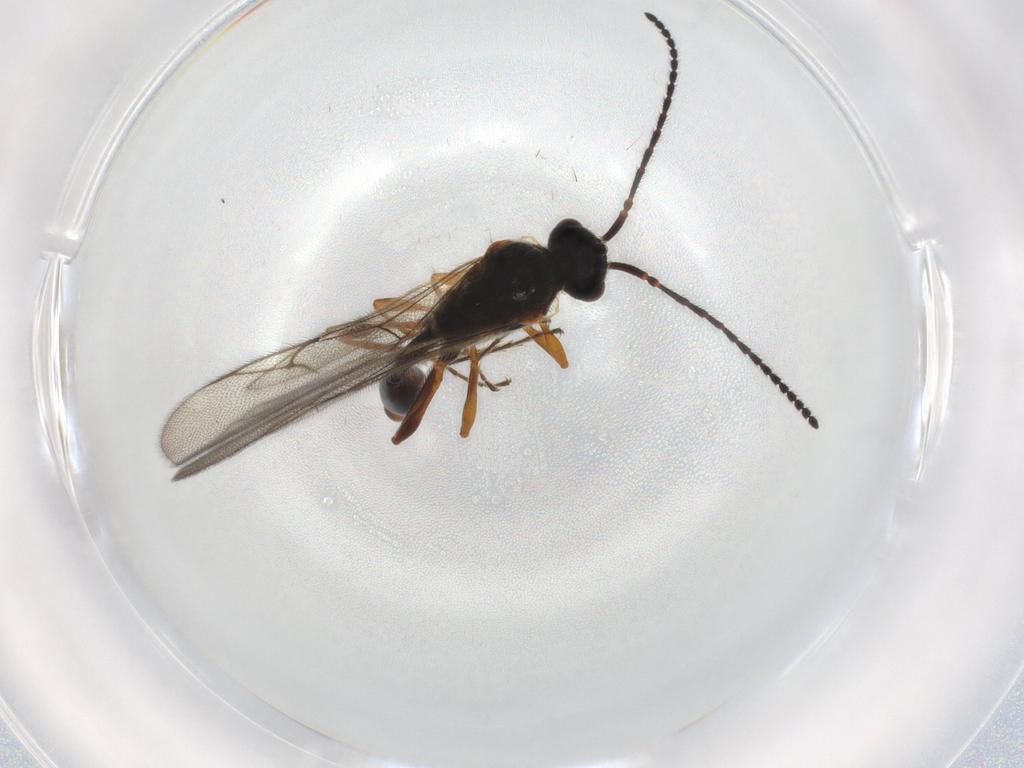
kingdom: Animalia
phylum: Arthropoda
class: Insecta
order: Hymenoptera
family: Diapriidae
